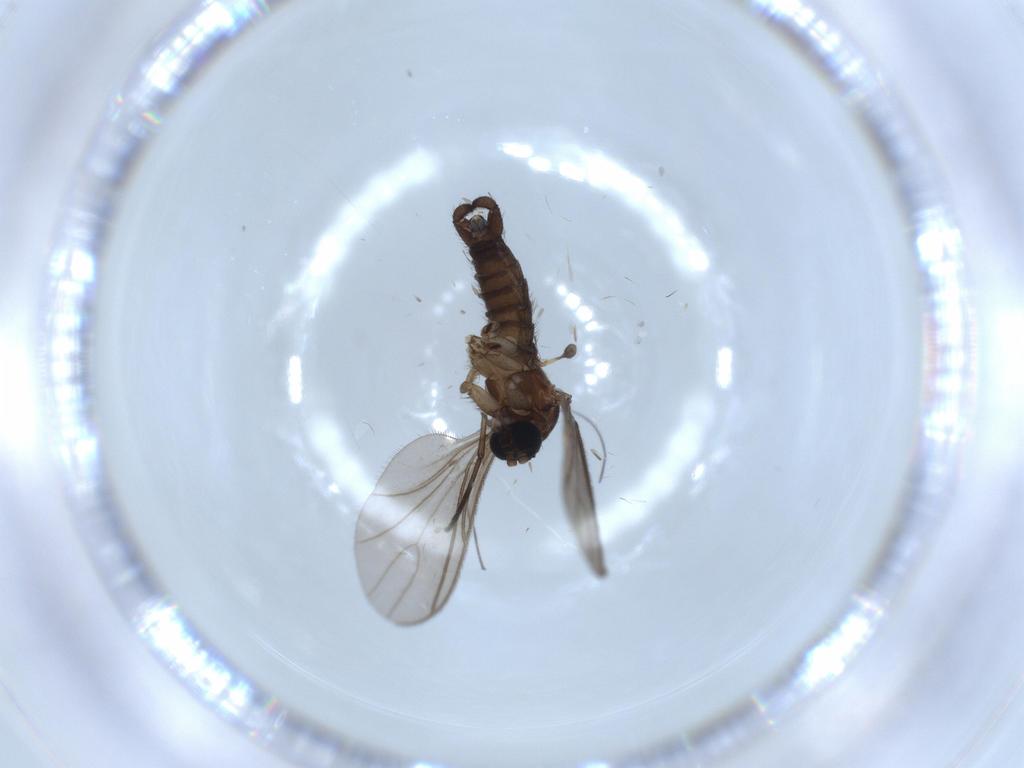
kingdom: Animalia
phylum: Arthropoda
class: Insecta
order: Diptera
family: Sciaridae
